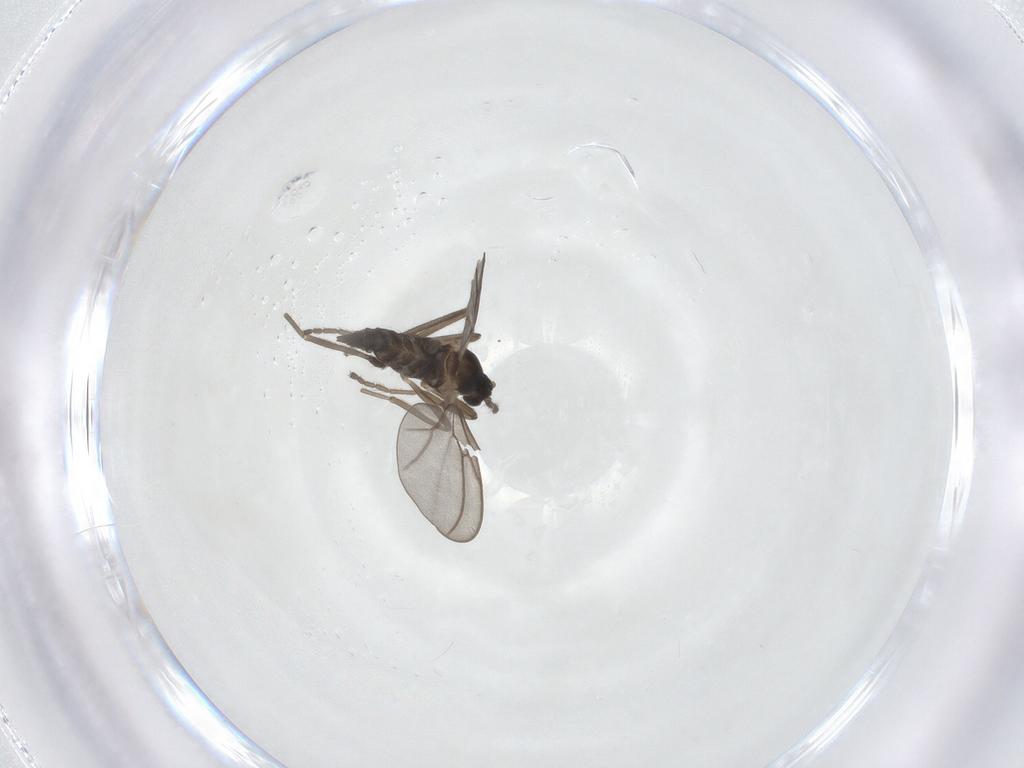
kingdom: Animalia
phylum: Arthropoda
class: Insecta
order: Diptera
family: Cecidomyiidae
